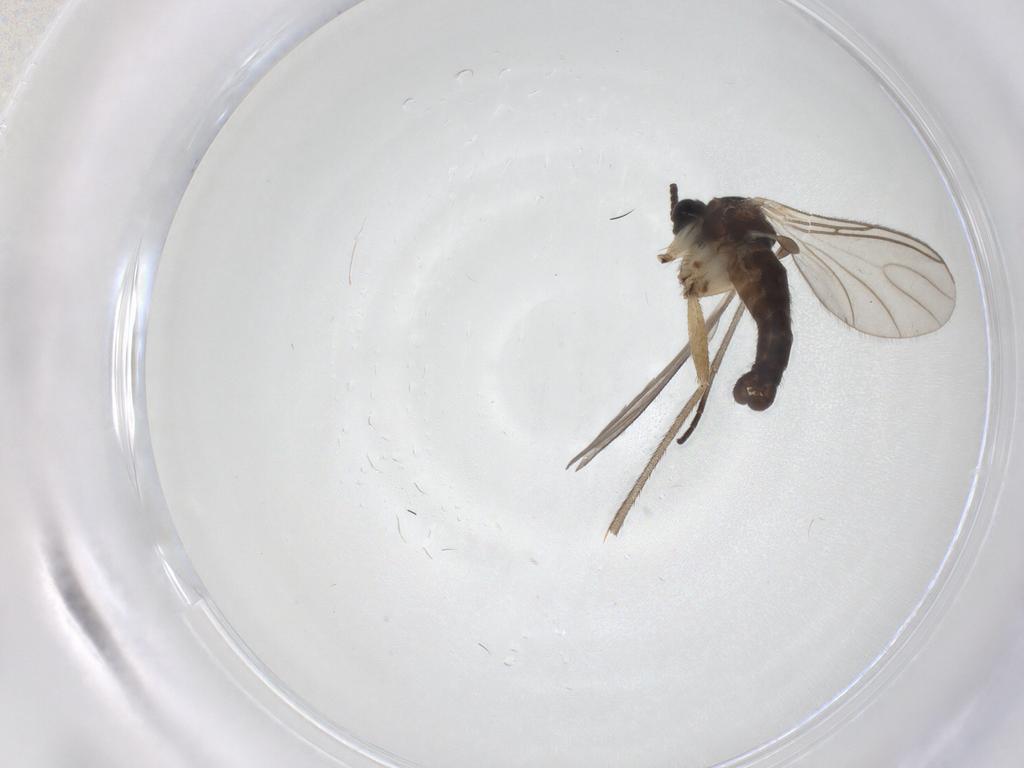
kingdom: Animalia
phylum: Arthropoda
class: Insecta
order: Diptera
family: Sciaridae
